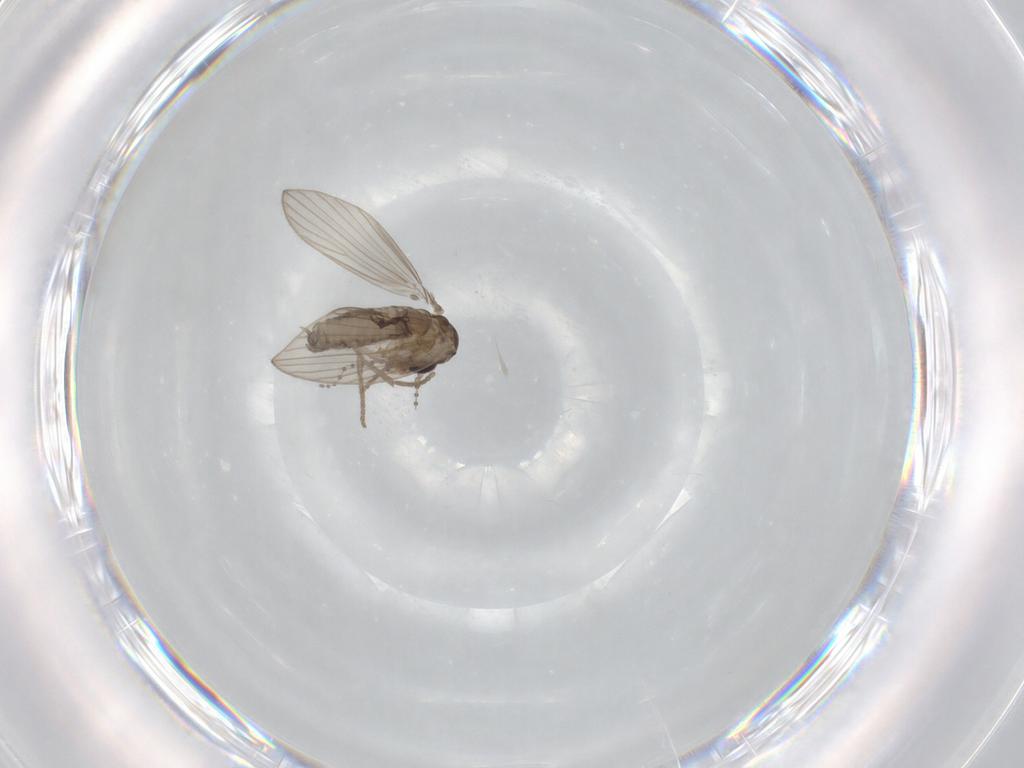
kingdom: Animalia
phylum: Arthropoda
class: Insecta
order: Diptera
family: Psychodidae
